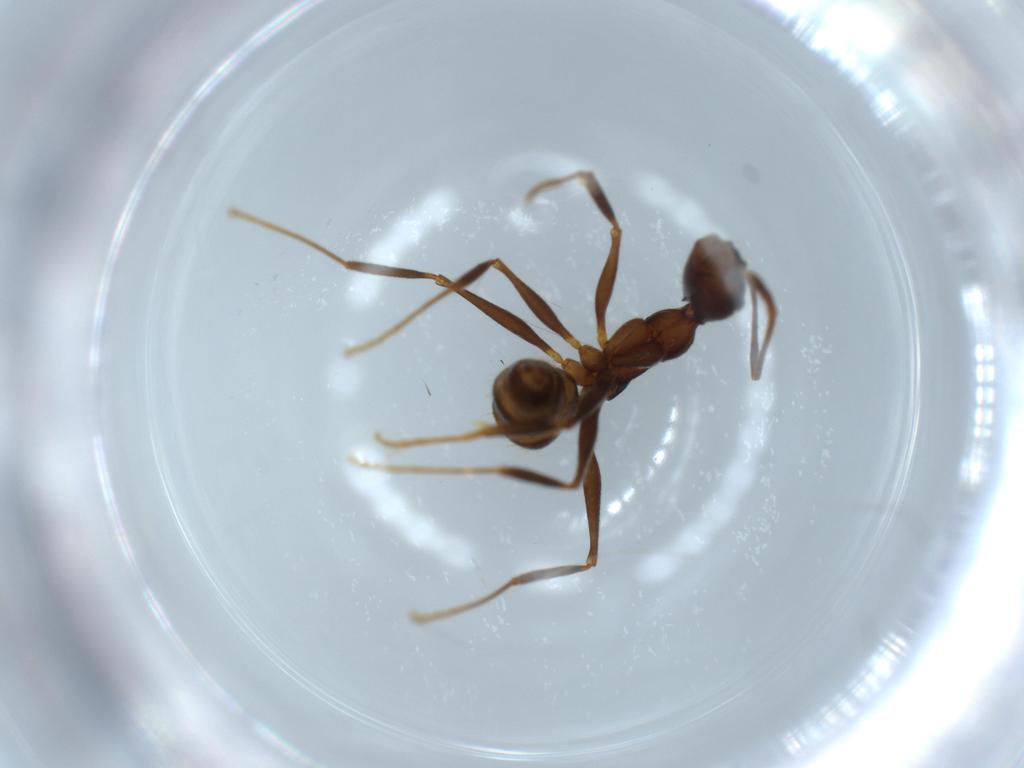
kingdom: Animalia
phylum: Arthropoda
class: Insecta
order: Hymenoptera
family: Formicidae
